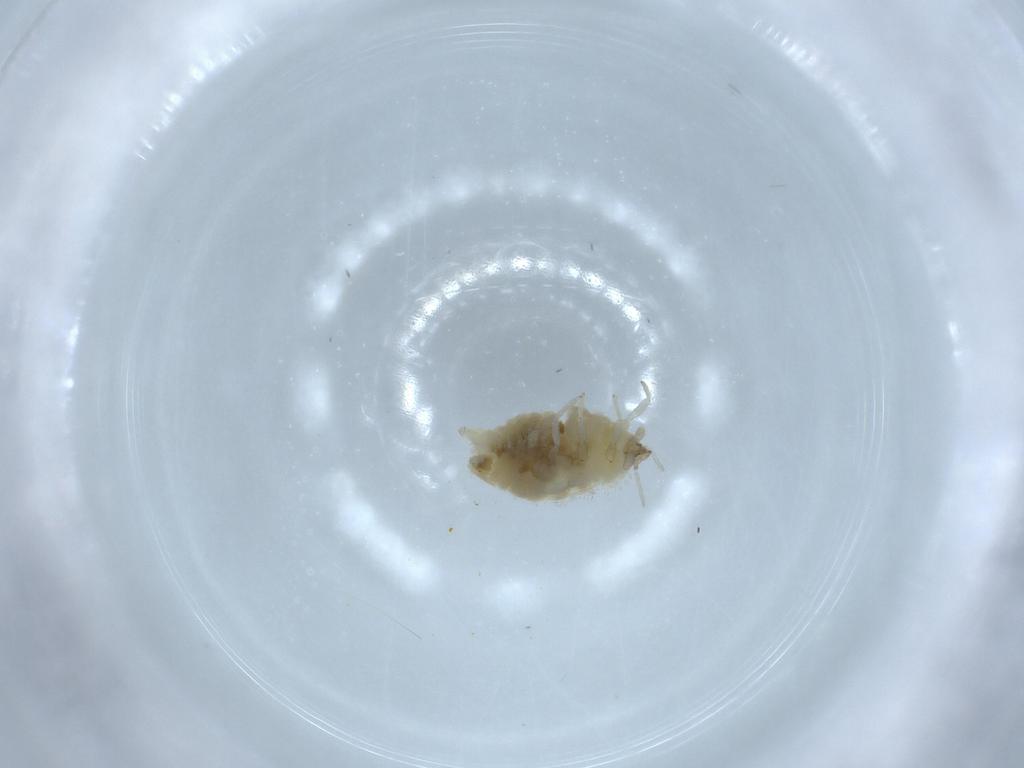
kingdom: Animalia
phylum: Arthropoda
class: Insecta
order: Neuroptera
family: Coniopterygidae
